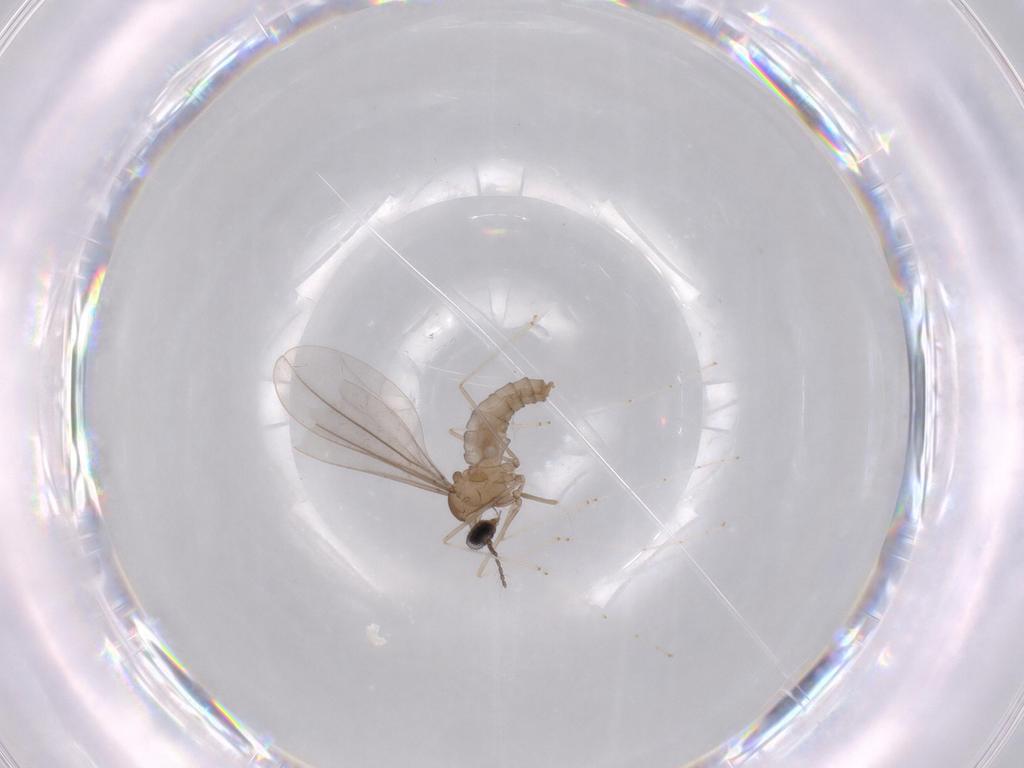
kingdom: Animalia
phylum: Arthropoda
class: Insecta
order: Diptera
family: Cecidomyiidae
